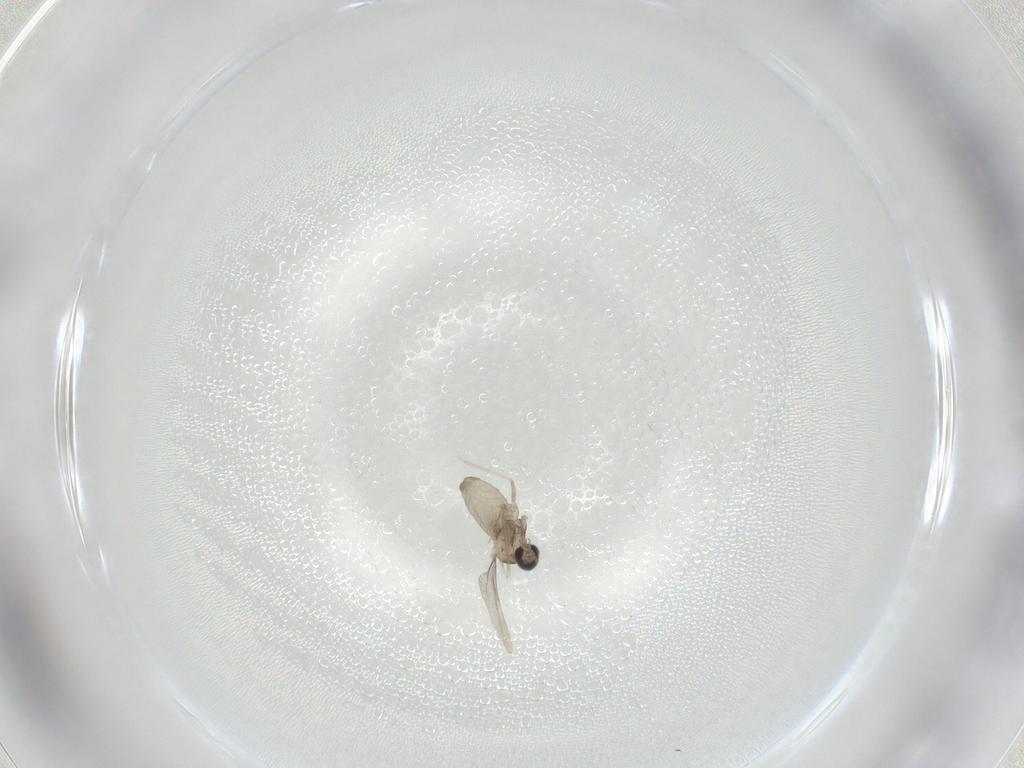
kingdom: Animalia
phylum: Arthropoda
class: Insecta
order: Diptera
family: Cecidomyiidae
